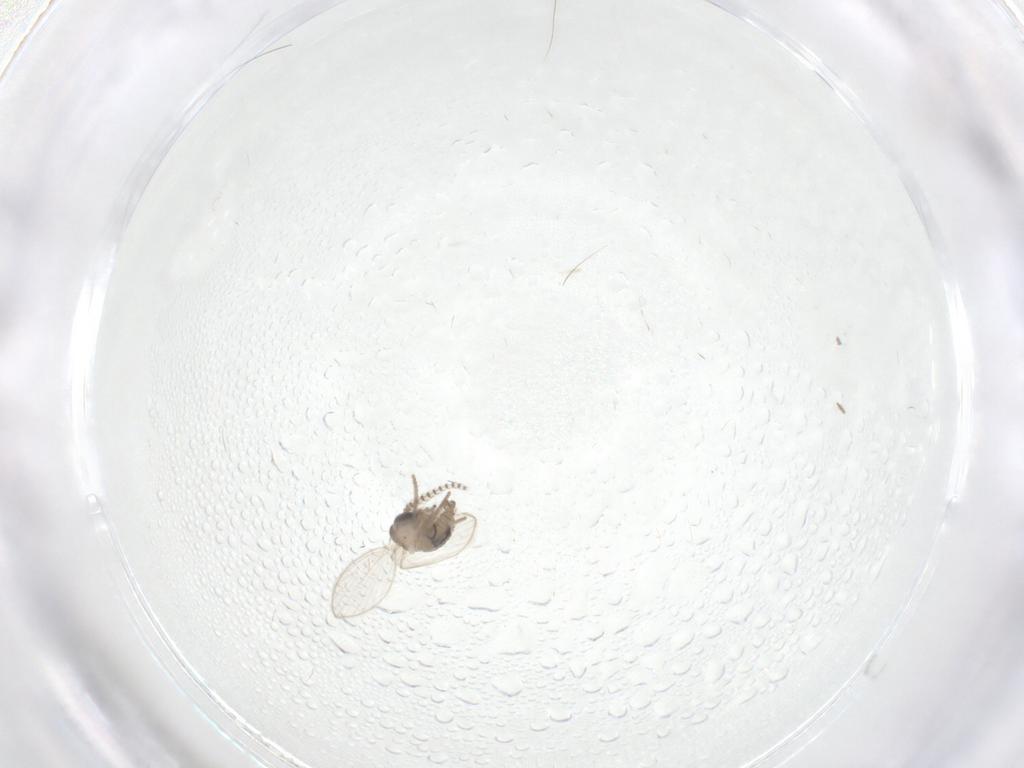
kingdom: Animalia
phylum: Arthropoda
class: Insecta
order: Diptera
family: Psychodidae
